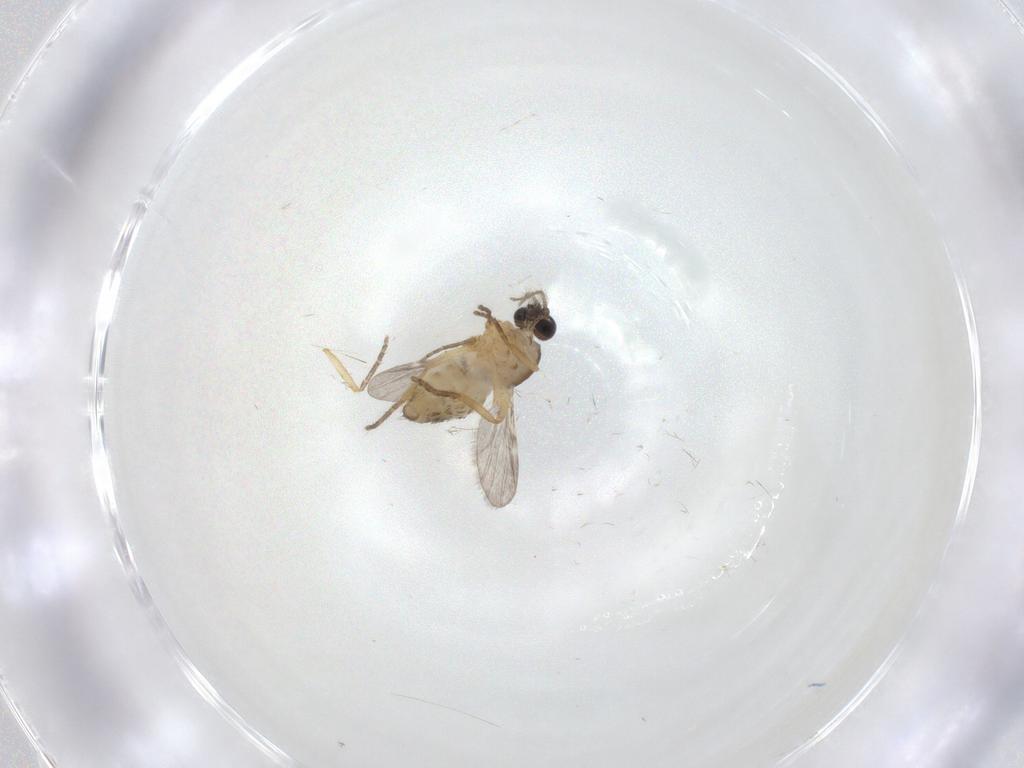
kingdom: Animalia
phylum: Arthropoda
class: Insecta
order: Diptera
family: Ceratopogonidae
